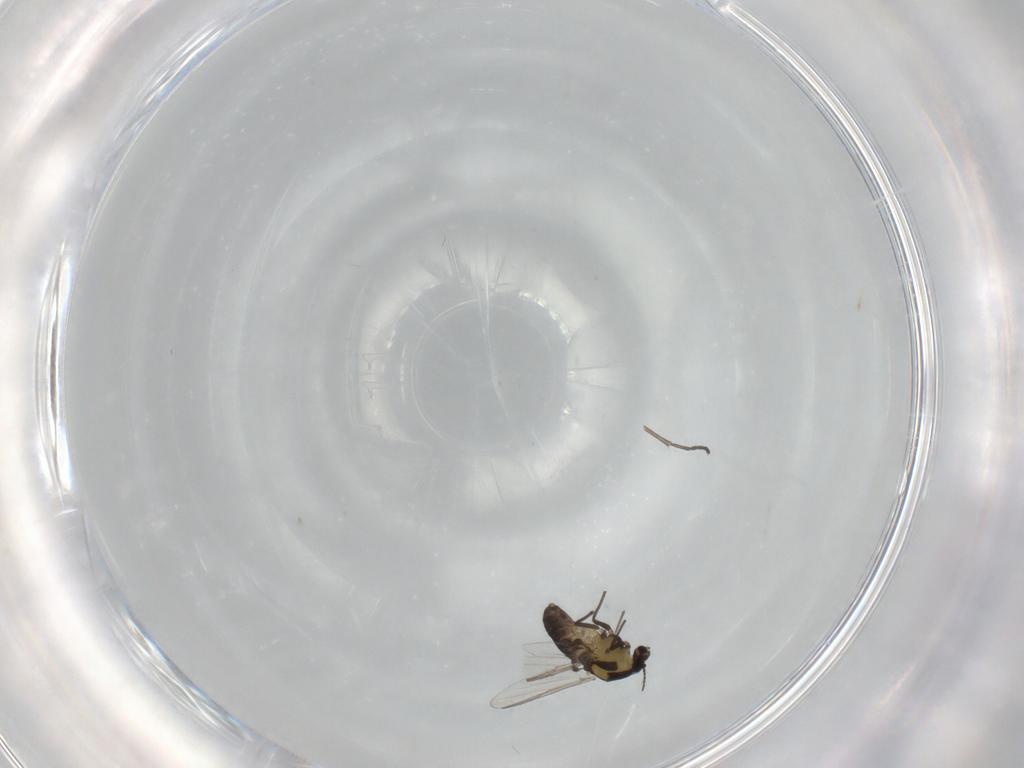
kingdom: Animalia
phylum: Arthropoda
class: Insecta
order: Diptera
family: Chironomidae
